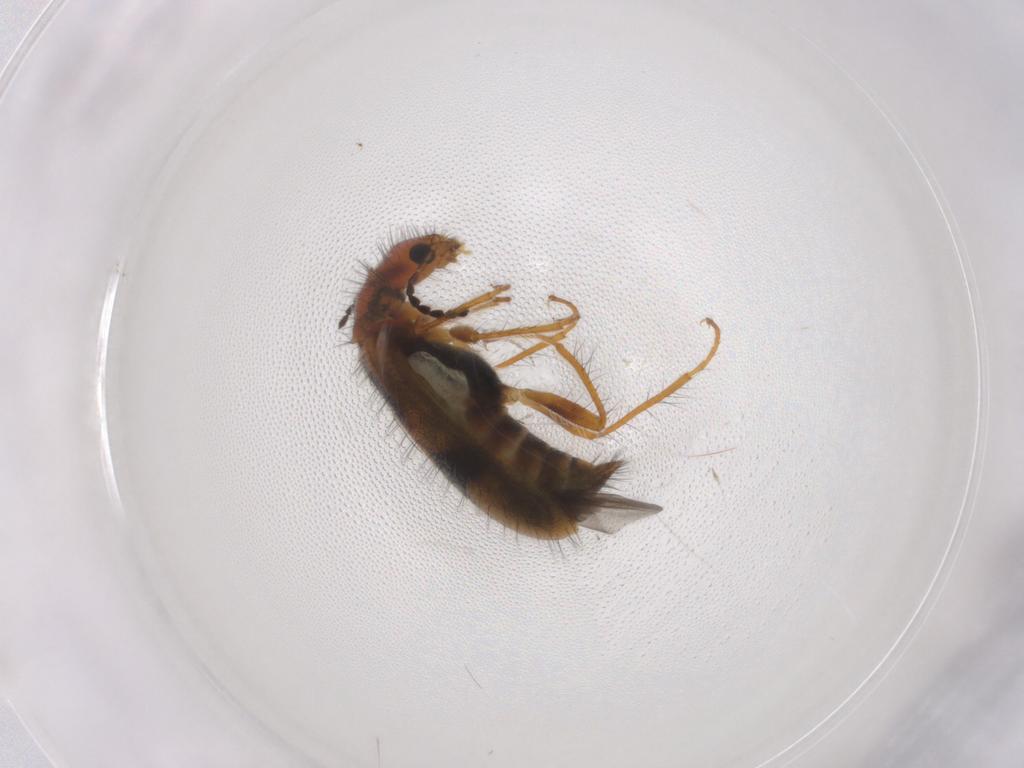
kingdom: Animalia
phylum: Arthropoda
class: Insecta
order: Coleoptera
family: Melyridae
